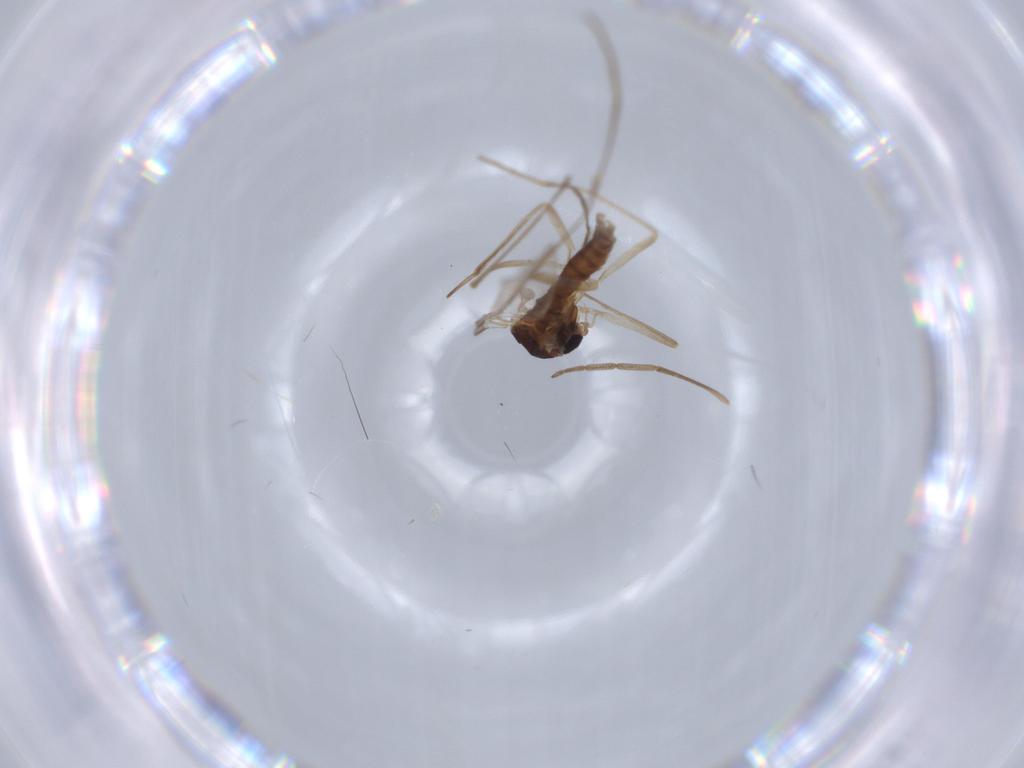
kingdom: Animalia
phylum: Arthropoda
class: Insecta
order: Diptera
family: Cecidomyiidae
